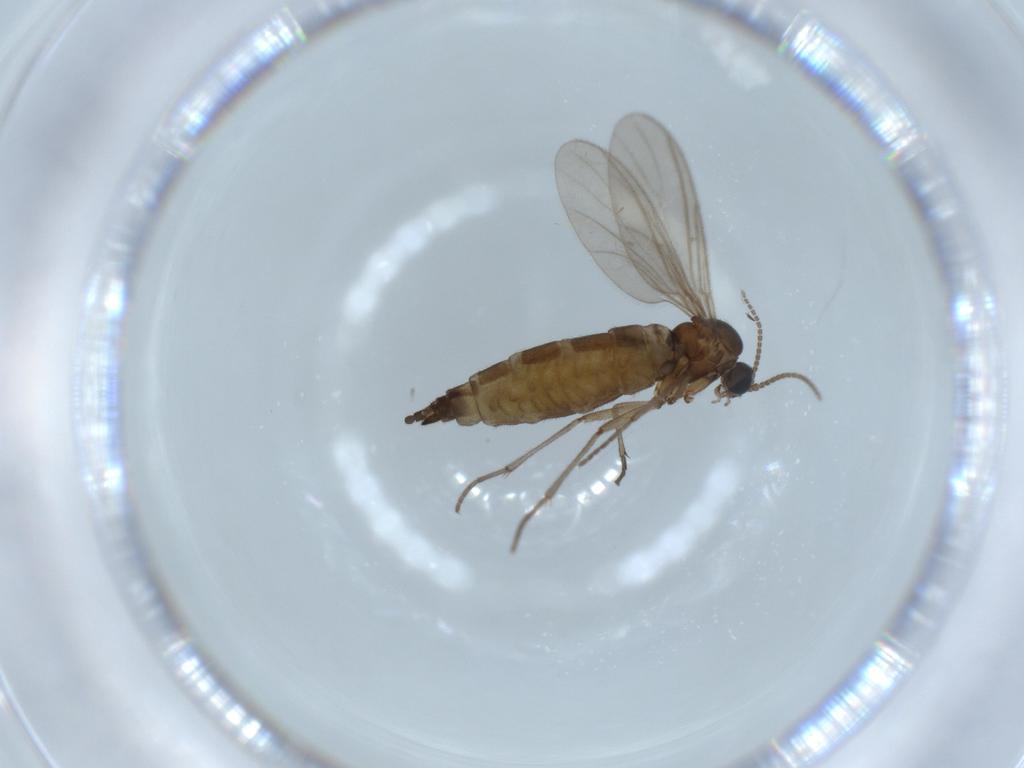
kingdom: Animalia
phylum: Arthropoda
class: Insecta
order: Diptera
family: Sciaridae
